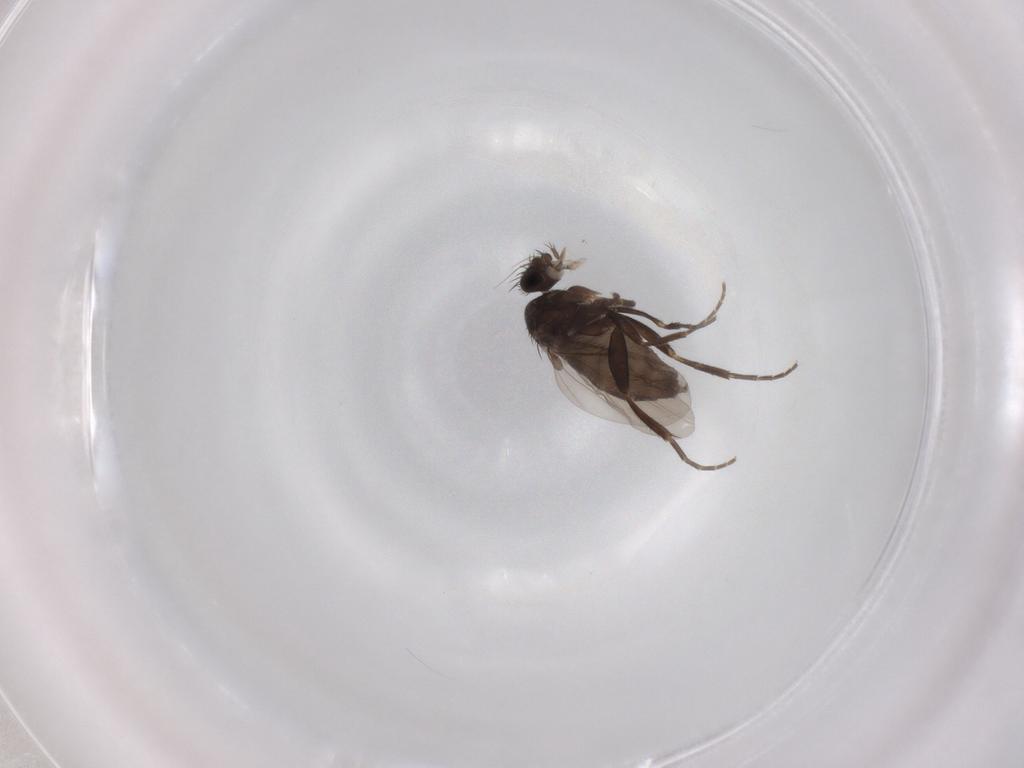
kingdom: Animalia
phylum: Arthropoda
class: Insecta
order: Diptera
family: Phoridae
